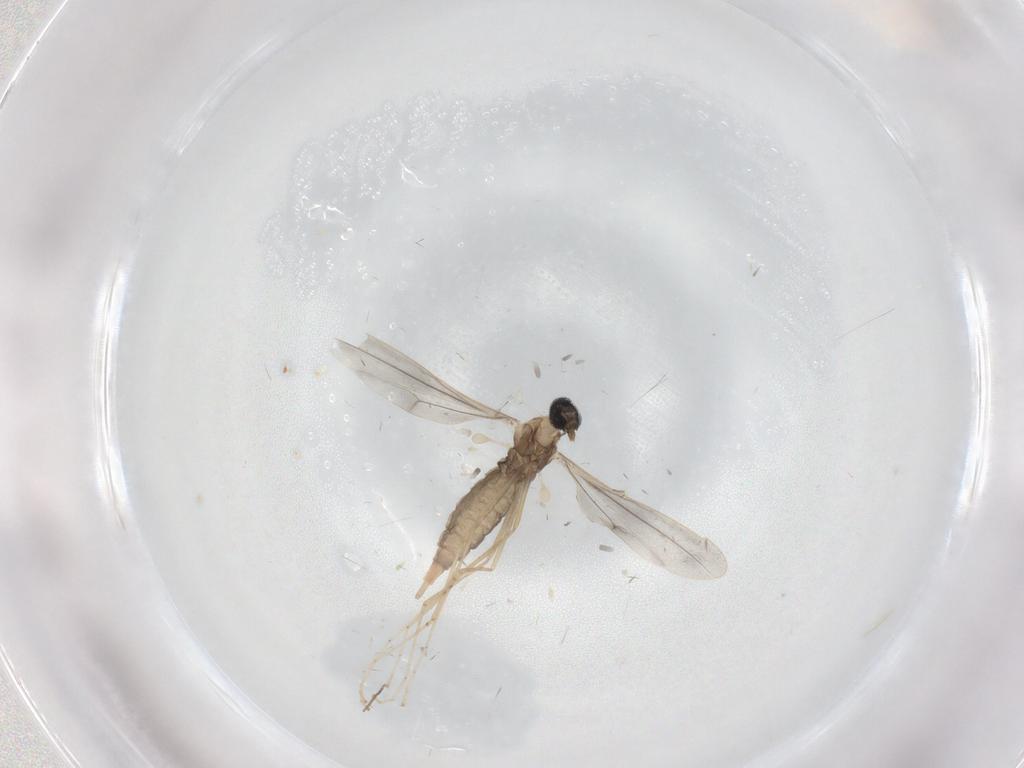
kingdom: Animalia
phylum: Arthropoda
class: Insecta
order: Diptera
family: Cecidomyiidae
